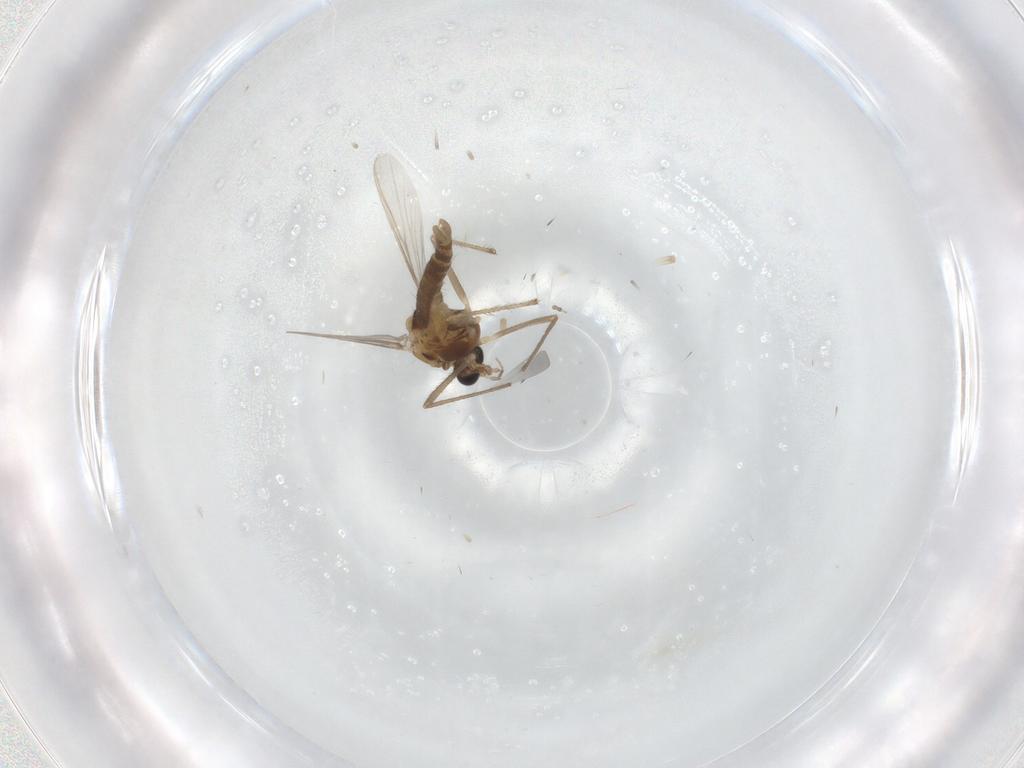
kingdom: Animalia
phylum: Arthropoda
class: Insecta
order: Diptera
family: Chironomidae
